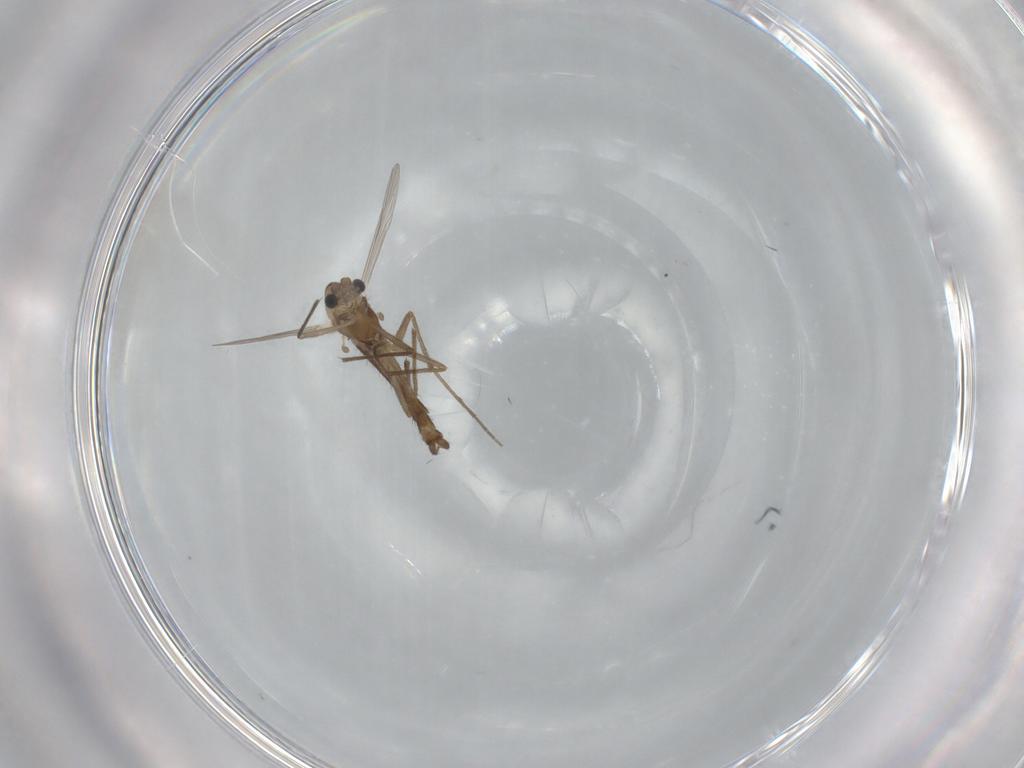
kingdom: Animalia
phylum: Arthropoda
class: Insecta
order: Diptera
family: Chironomidae
